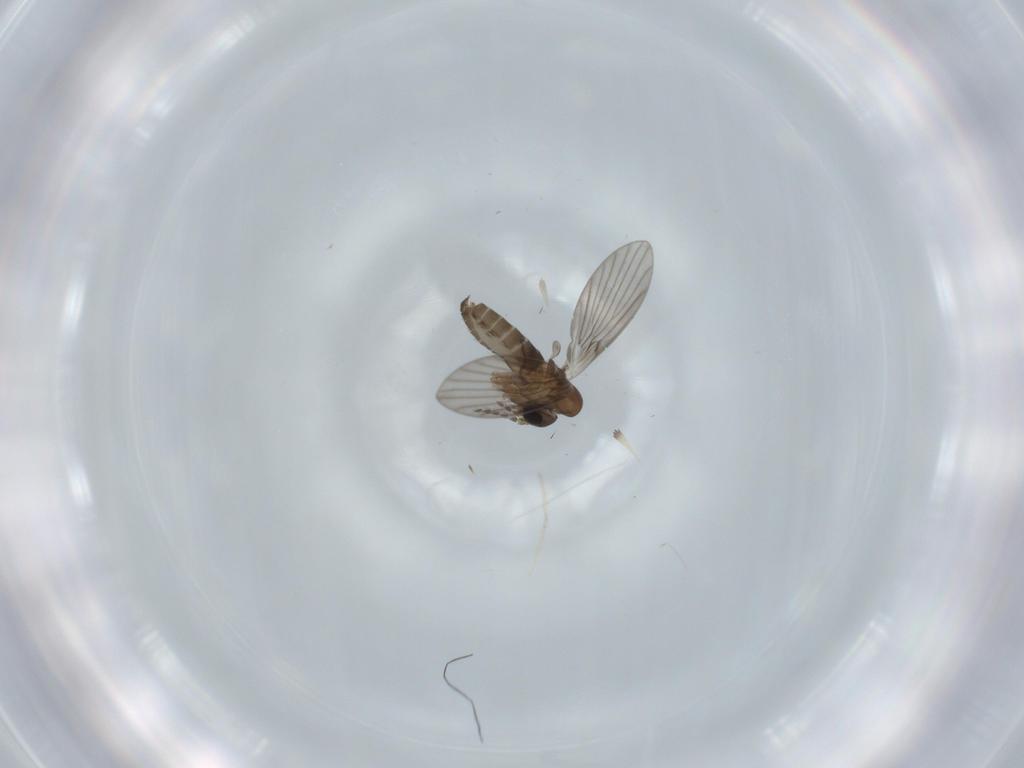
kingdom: Animalia
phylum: Arthropoda
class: Insecta
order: Diptera
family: Psychodidae
